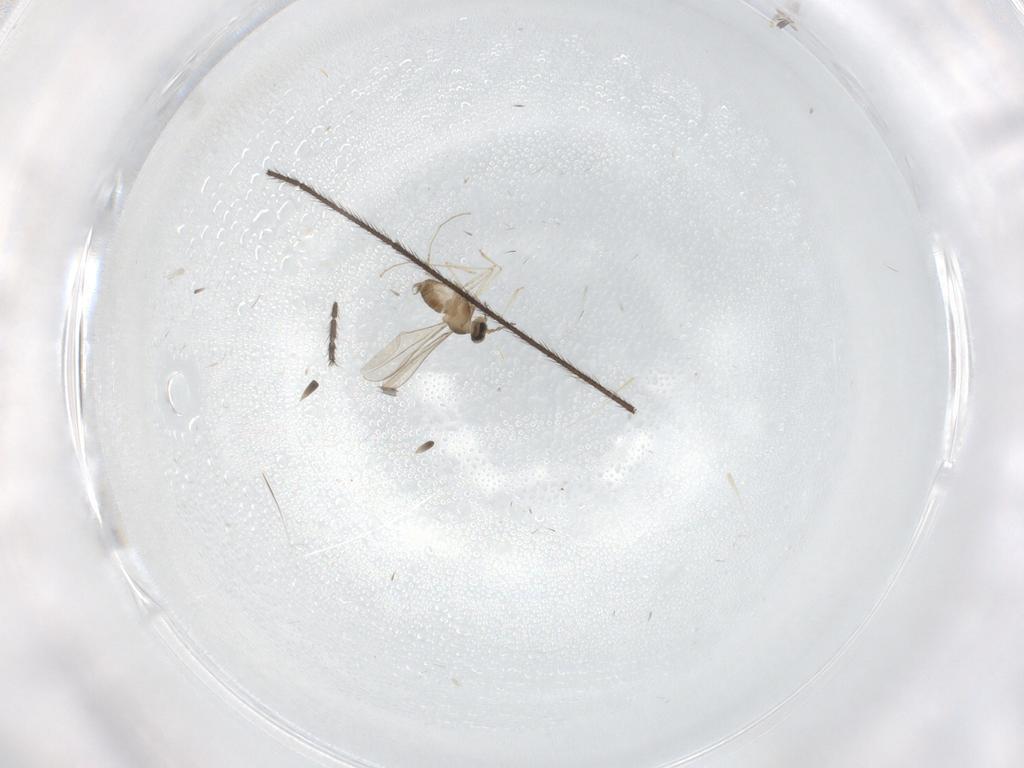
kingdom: Animalia
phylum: Arthropoda
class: Insecta
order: Diptera
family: Cecidomyiidae
